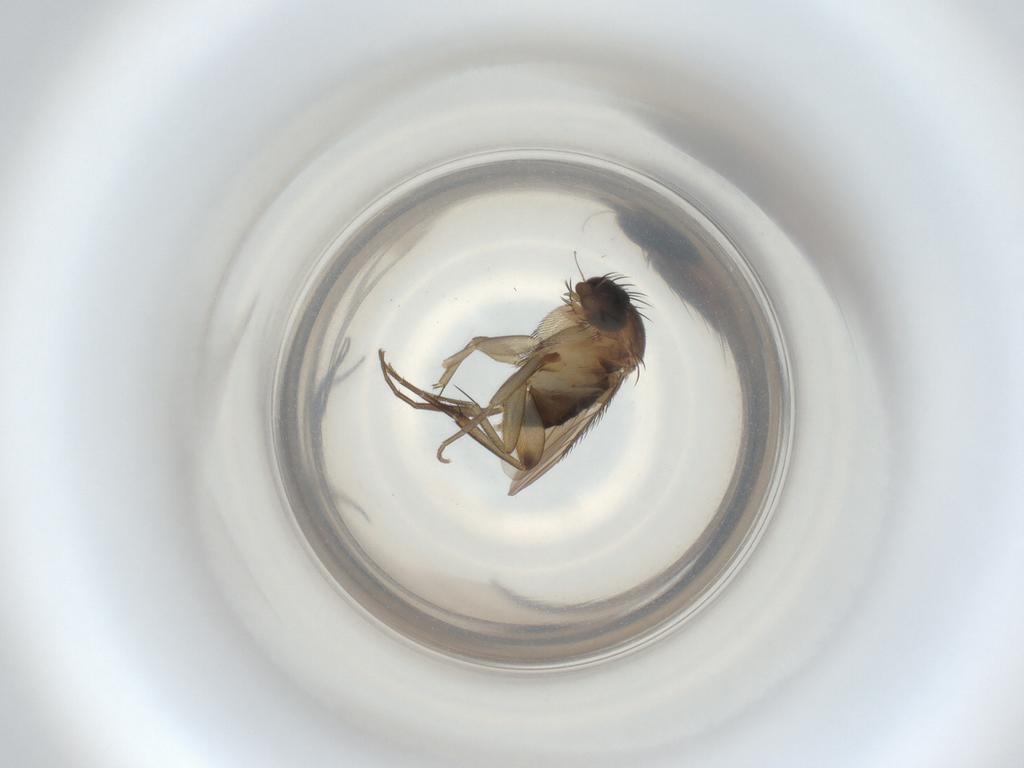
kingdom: Animalia
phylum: Arthropoda
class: Insecta
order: Diptera
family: Phoridae
